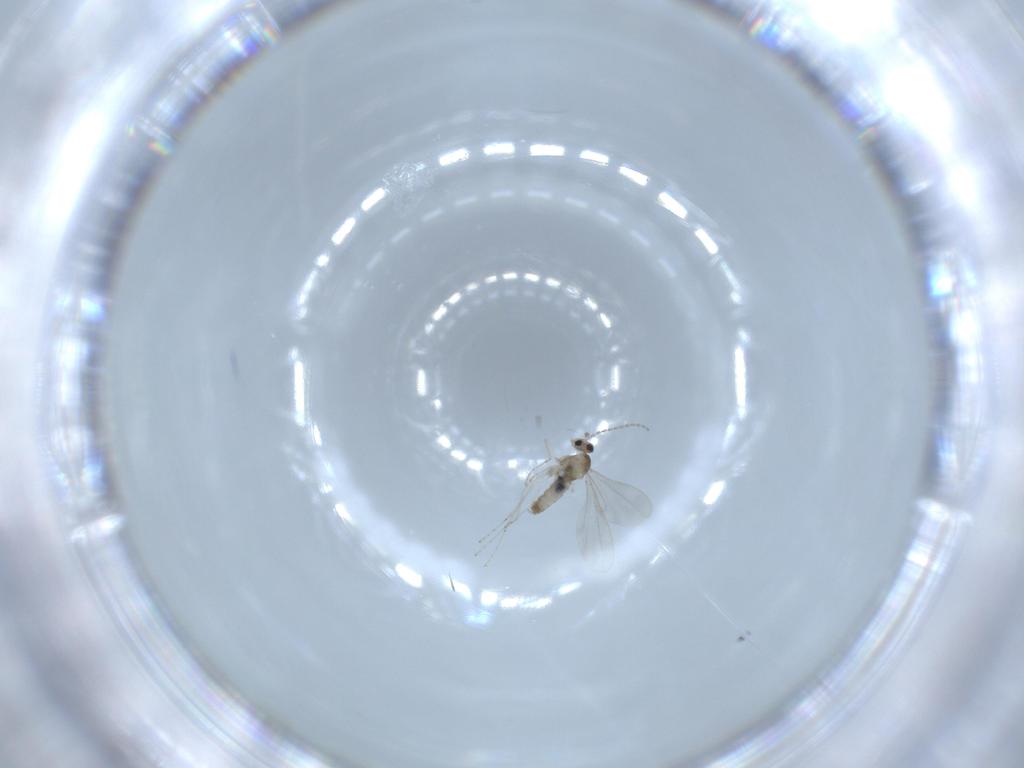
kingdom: Animalia
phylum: Arthropoda
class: Insecta
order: Diptera
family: Cecidomyiidae
